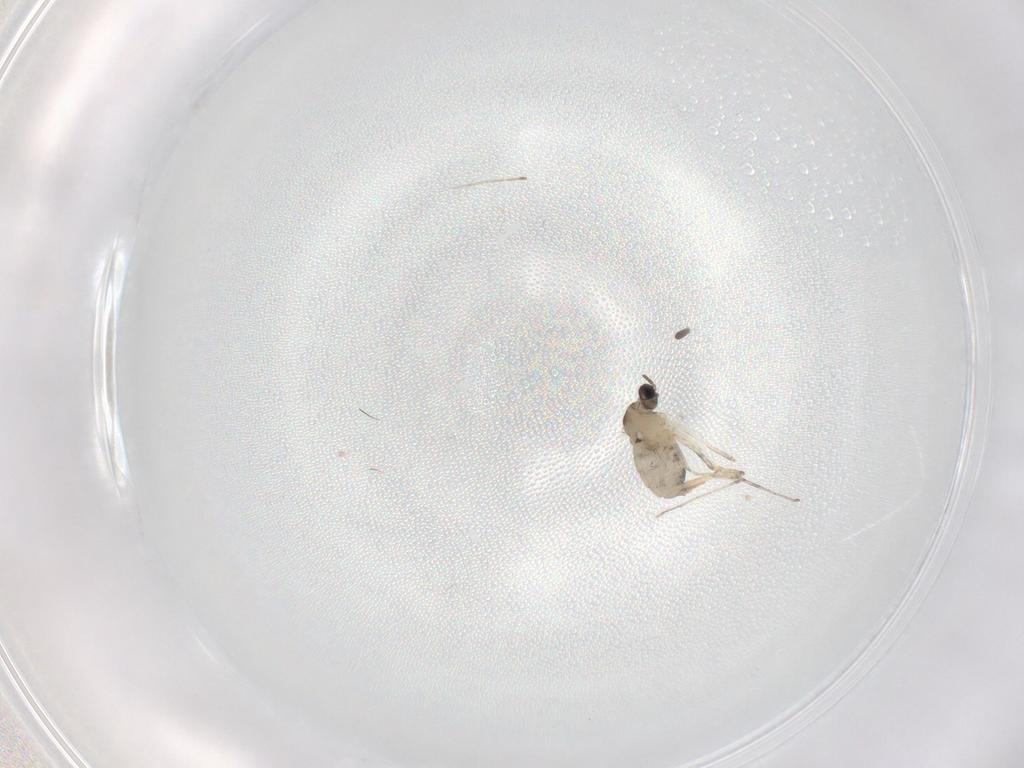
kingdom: Animalia
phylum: Arthropoda
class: Insecta
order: Diptera
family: Cecidomyiidae
